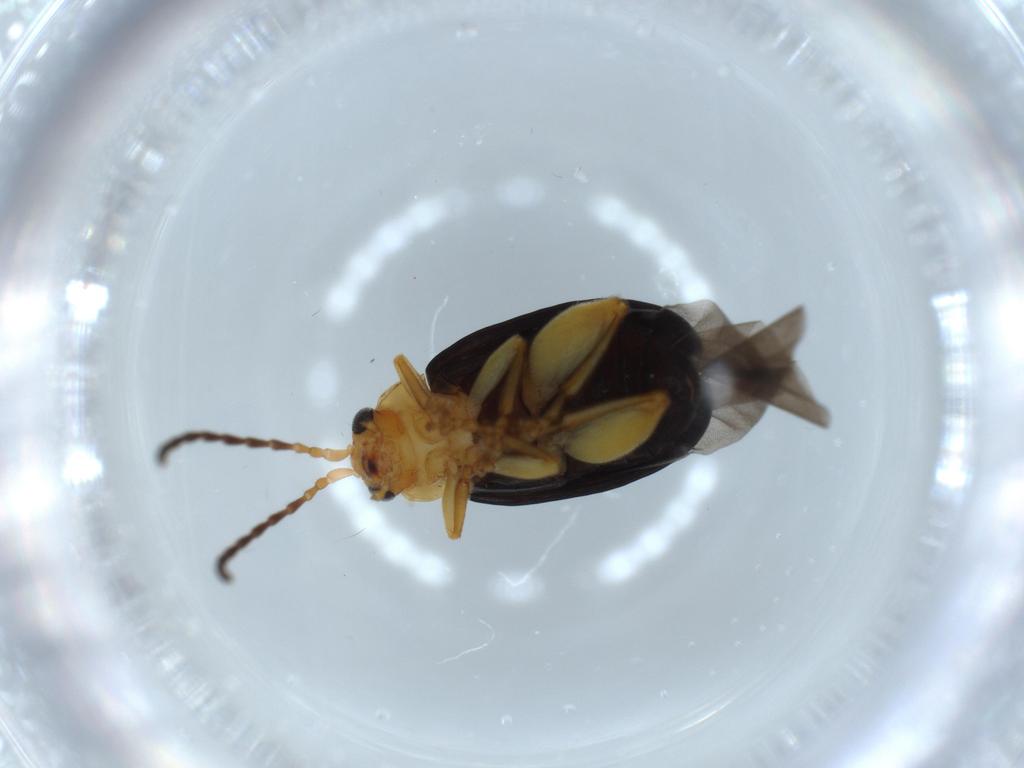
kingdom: Animalia
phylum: Arthropoda
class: Insecta
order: Coleoptera
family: Chrysomelidae
